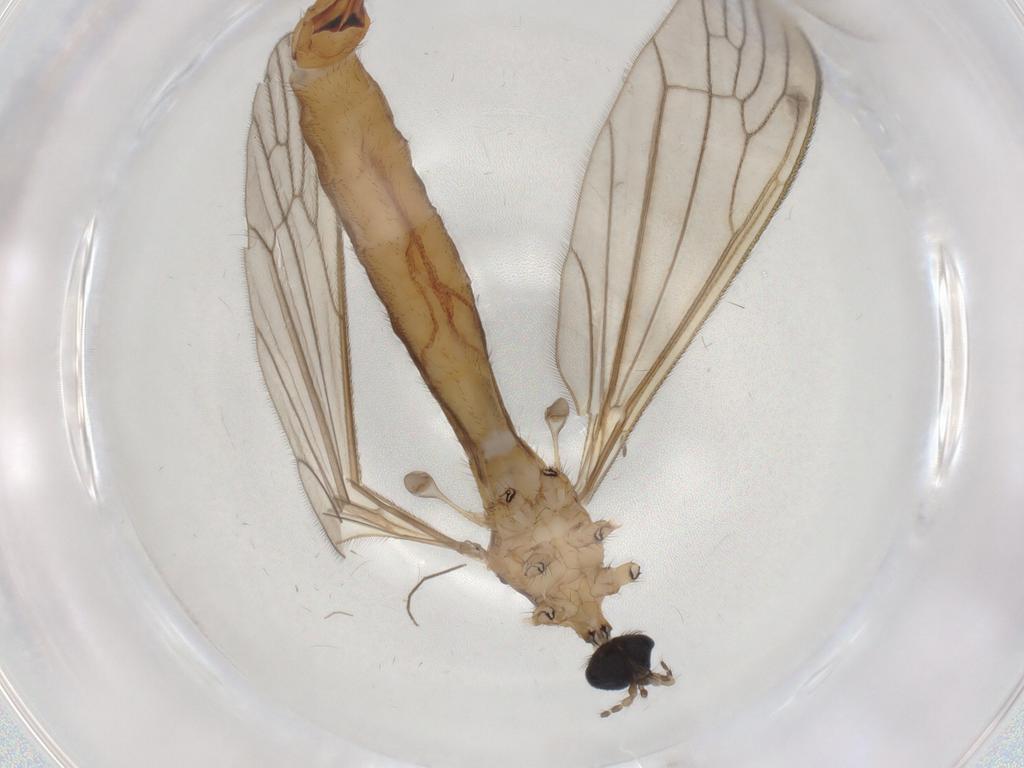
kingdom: Animalia
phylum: Arthropoda
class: Insecta
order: Diptera
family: Limoniidae
